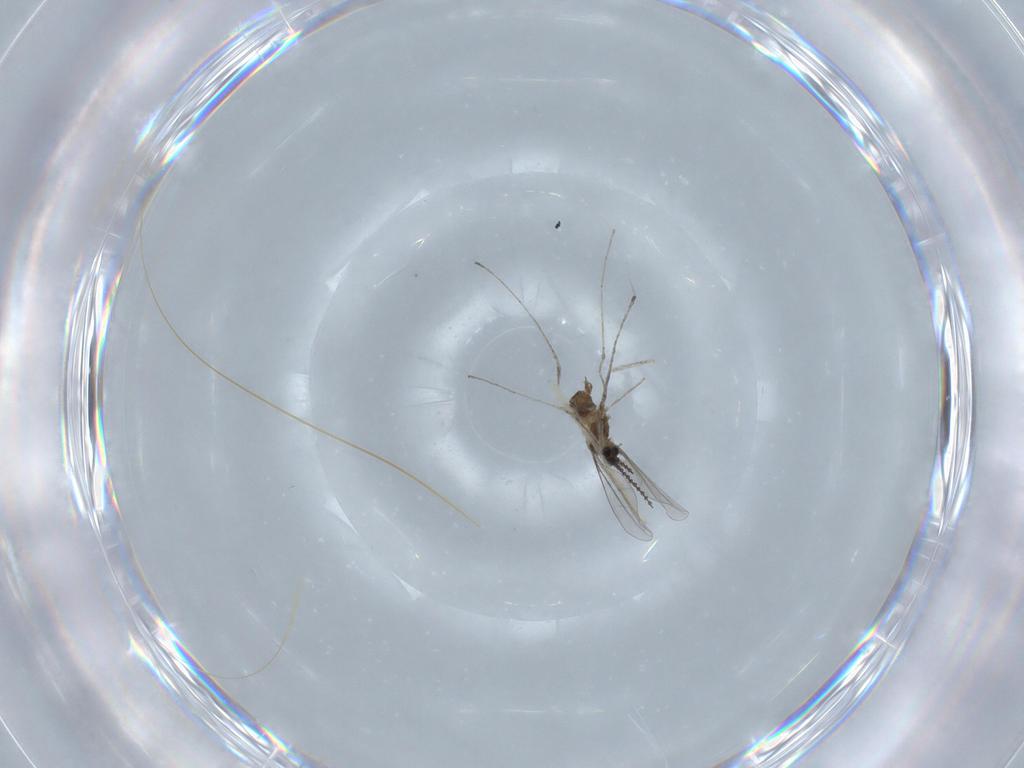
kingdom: Animalia
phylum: Arthropoda
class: Insecta
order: Diptera
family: Cecidomyiidae
